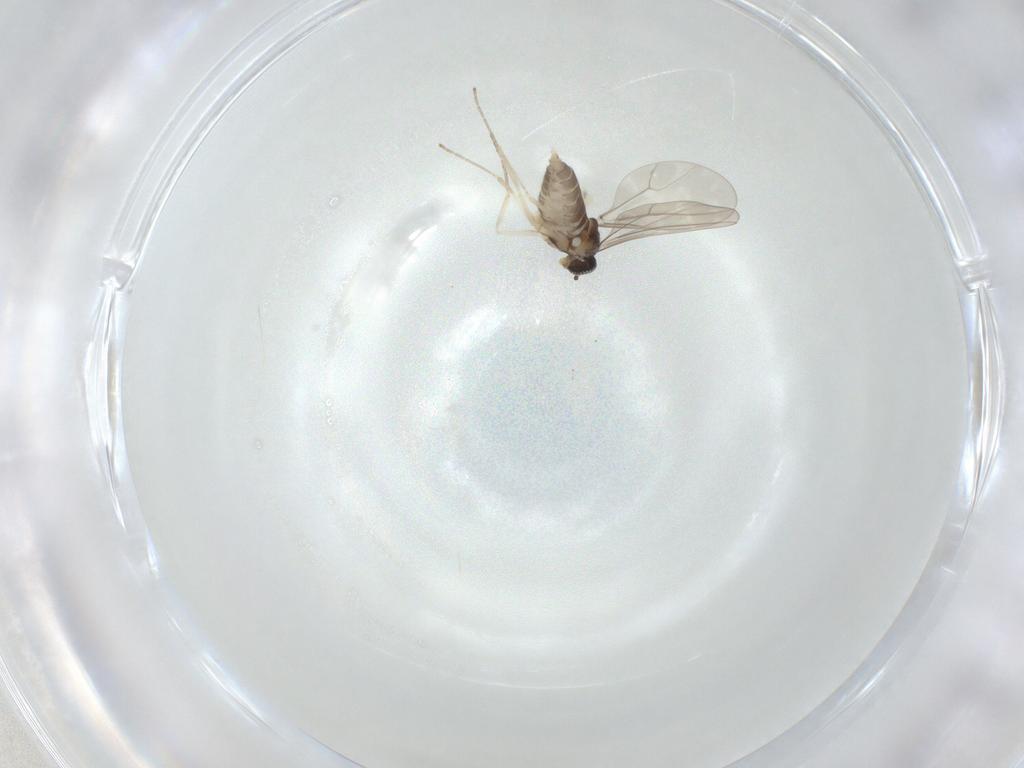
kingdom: Animalia
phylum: Arthropoda
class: Insecta
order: Diptera
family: Cecidomyiidae
